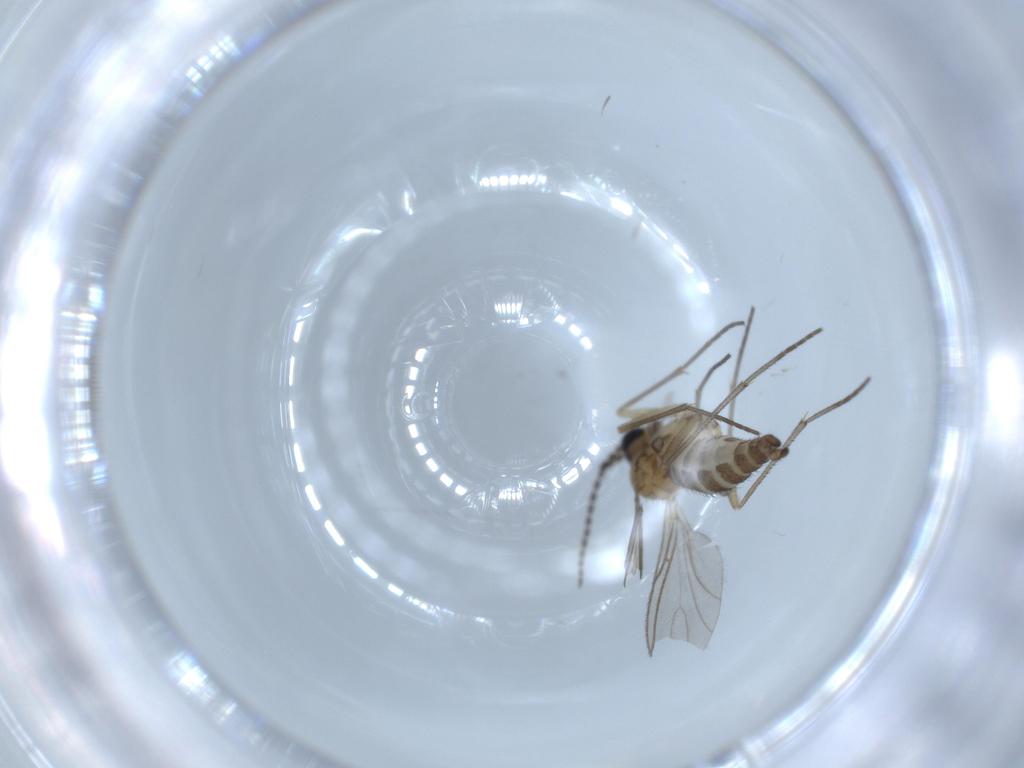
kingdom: Animalia
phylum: Arthropoda
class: Insecta
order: Diptera
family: Sciaridae
